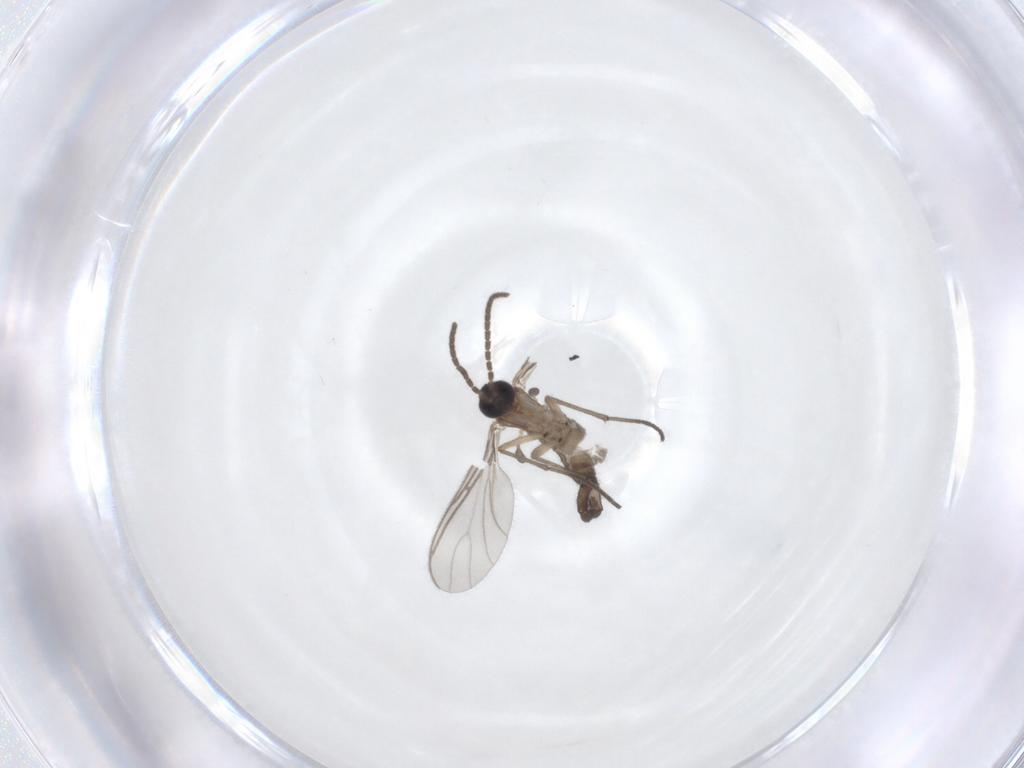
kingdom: Animalia
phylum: Arthropoda
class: Insecta
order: Diptera
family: Sciaridae
